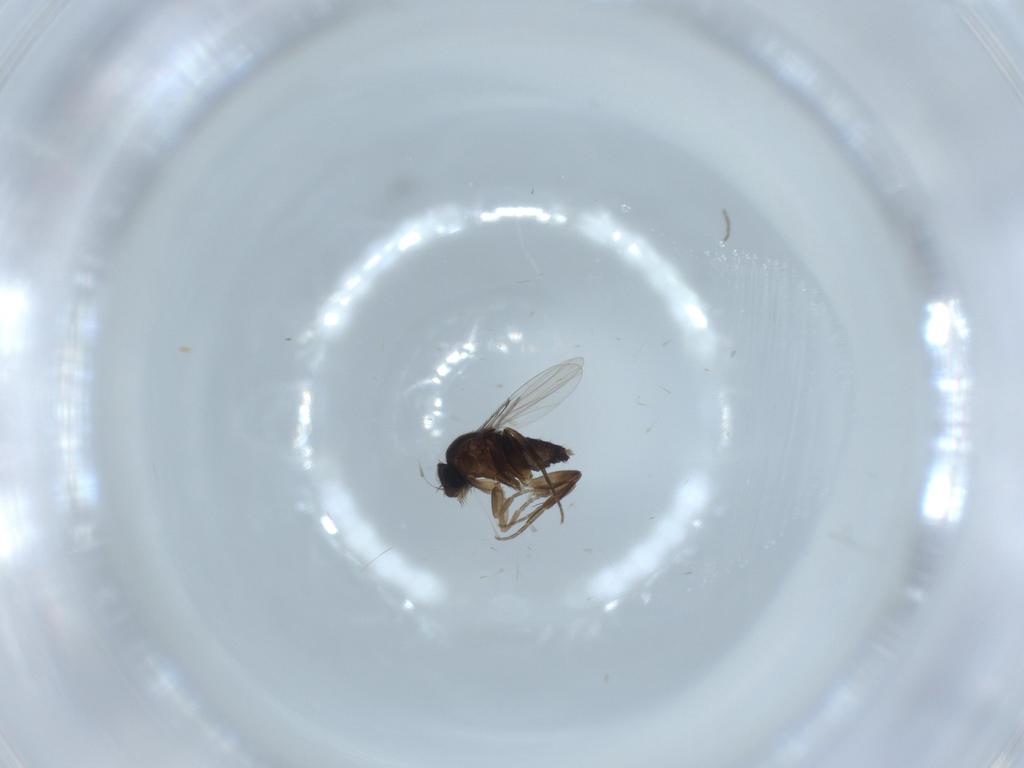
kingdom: Animalia
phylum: Arthropoda
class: Insecta
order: Diptera
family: Phoridae
